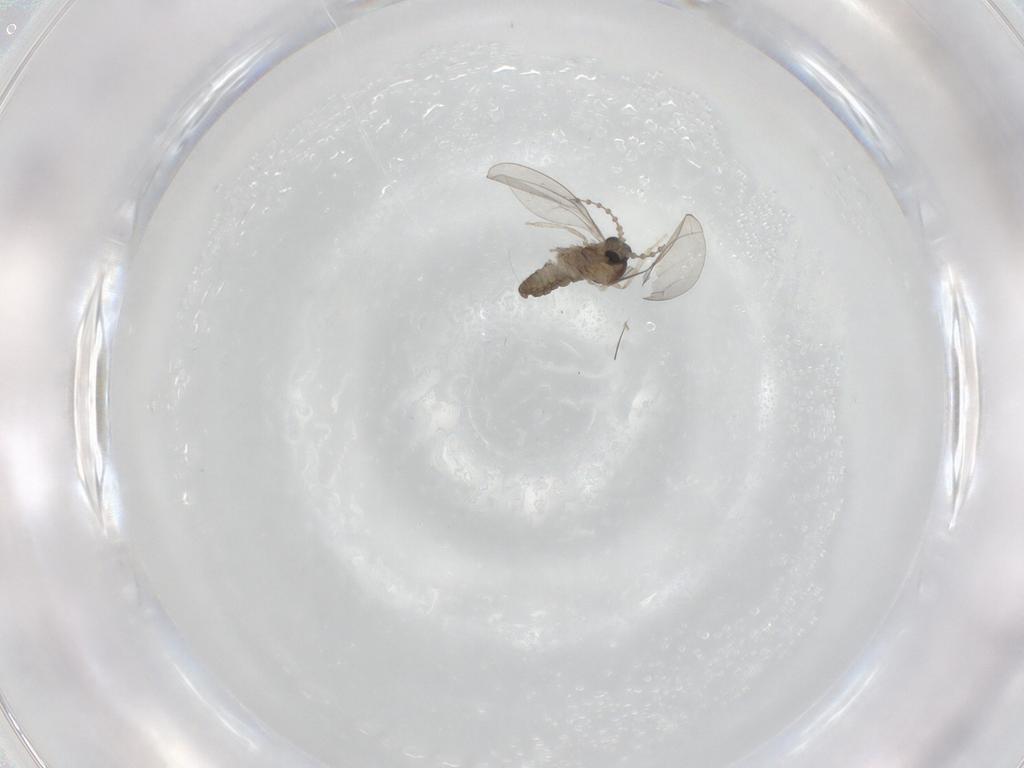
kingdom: Animalia
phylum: Arthropoda
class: Insecta
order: Diptera
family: Cecidomyiidae
